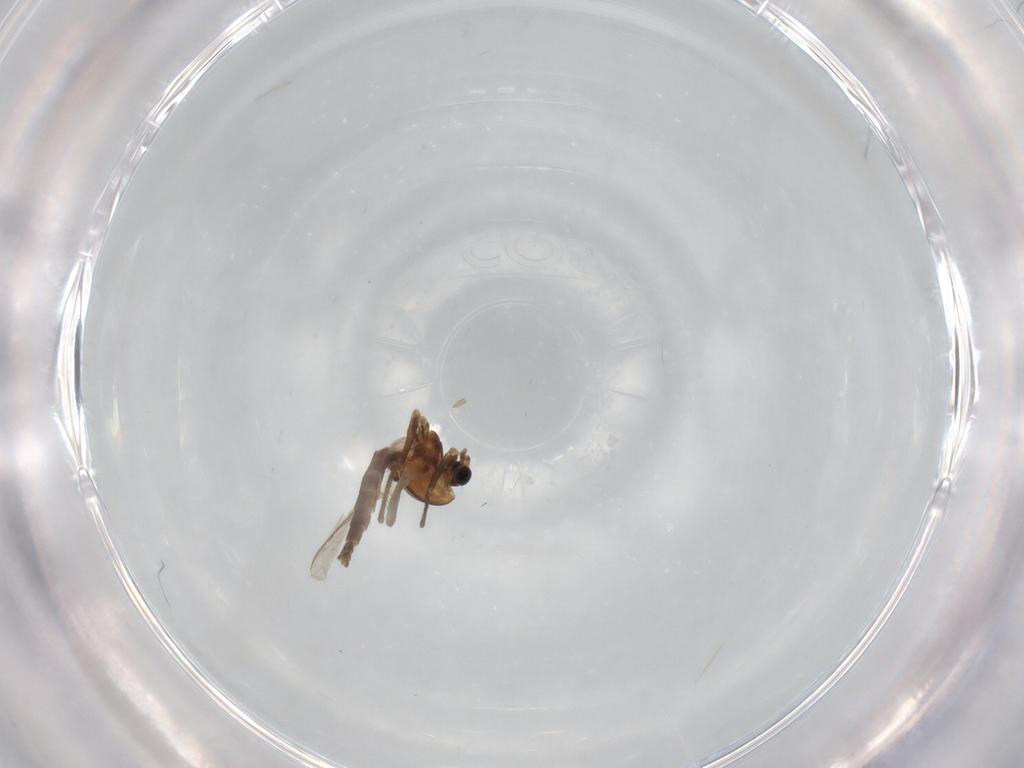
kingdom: Animalia
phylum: Arthropoda
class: Insecta
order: Diptera
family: Chironomidae
